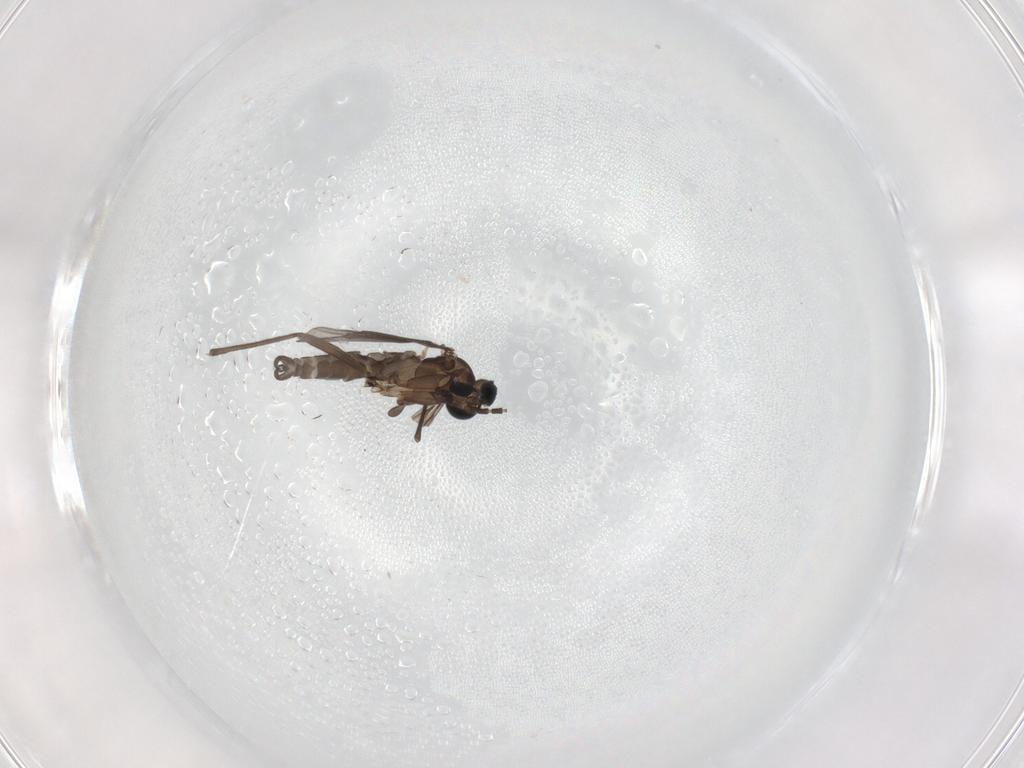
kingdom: Animalia
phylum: Arthropoda
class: Insecta
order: Diptera
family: Sciaridae
